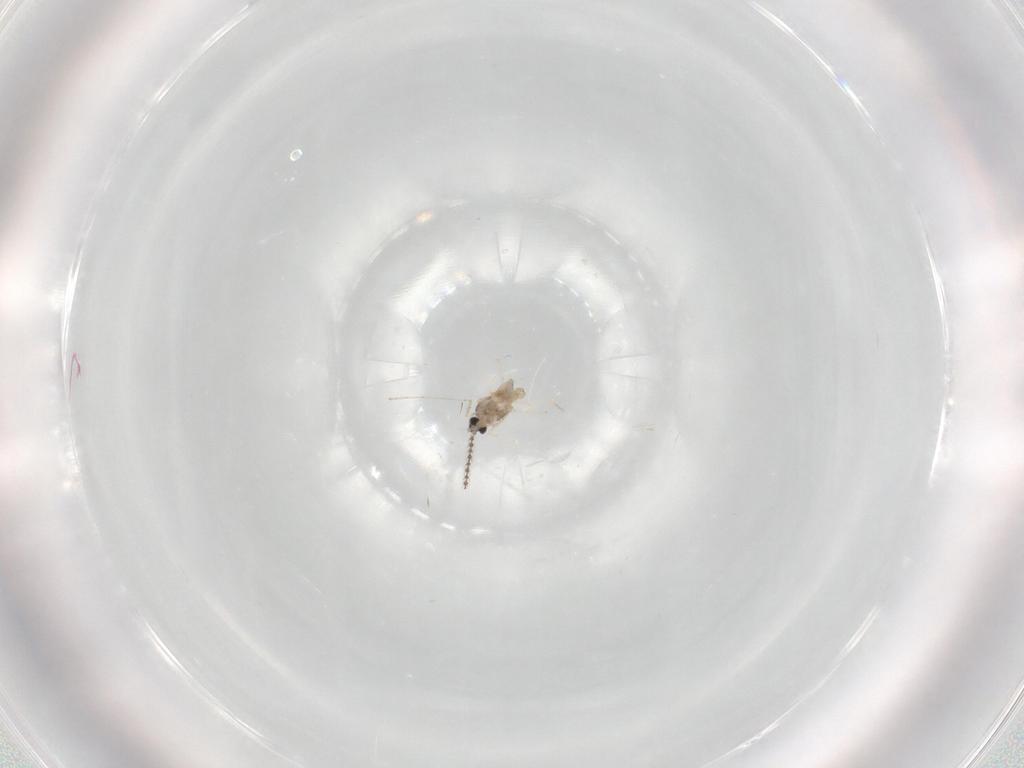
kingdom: Animalia
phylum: Arthropoda
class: Insecta
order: Diptera
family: Cecidomyiidae
